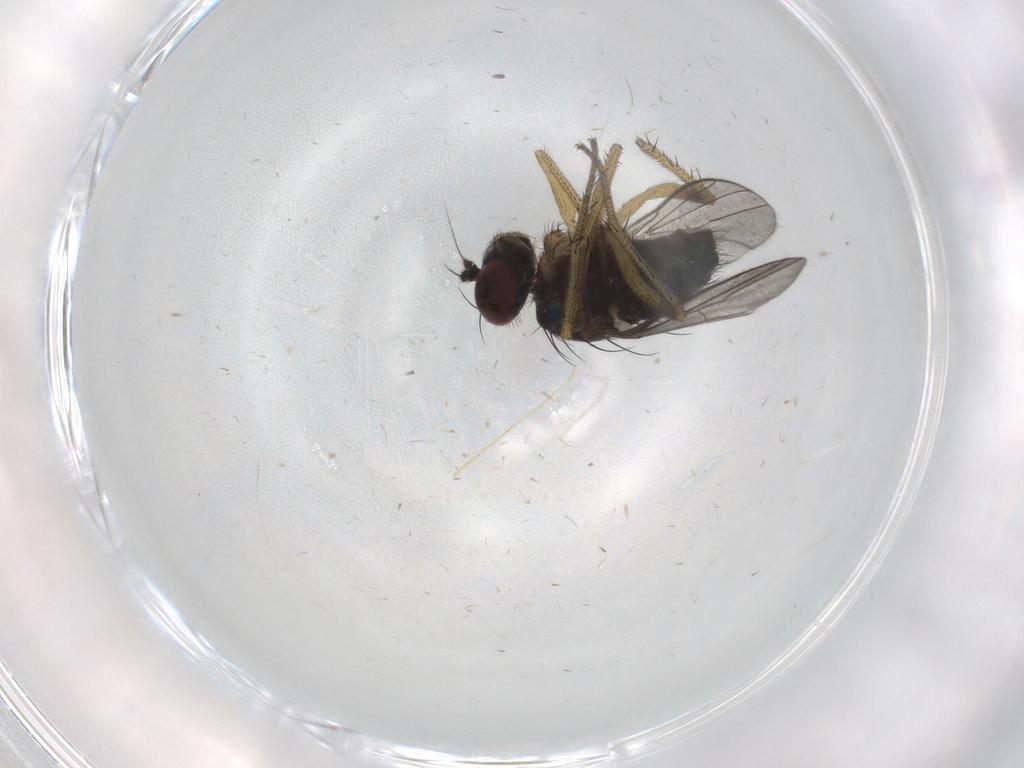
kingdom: Animalia
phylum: Arthropoda
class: Insecta
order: Diptera
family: Dolichopodidae
